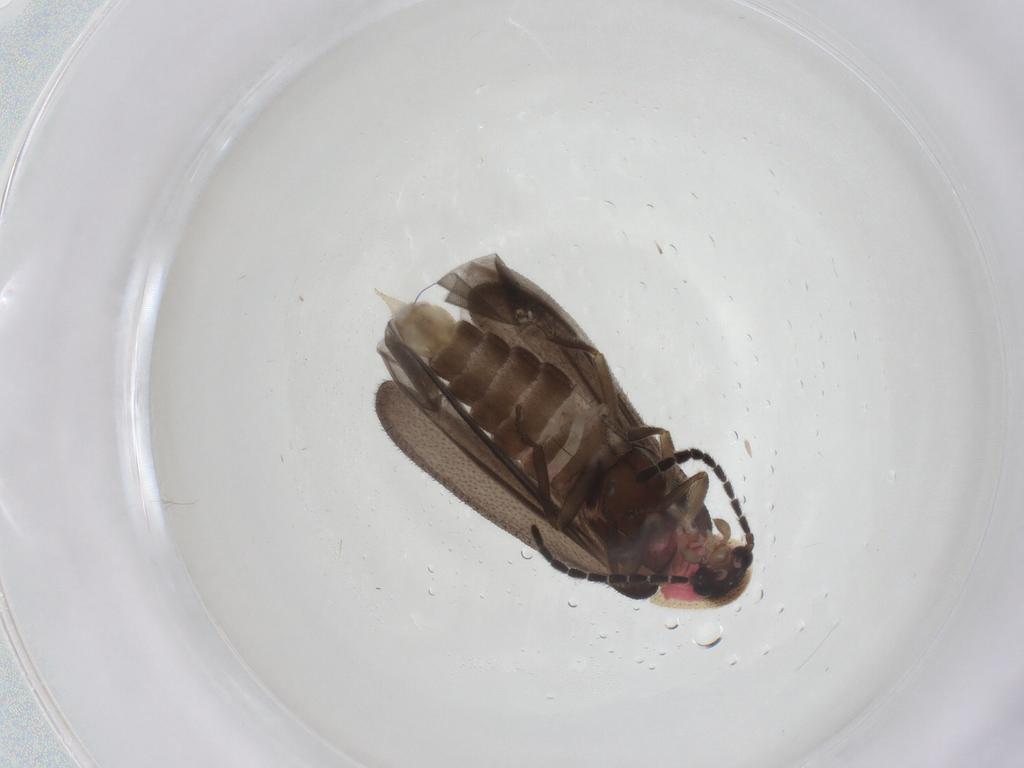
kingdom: Animalia
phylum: Arthropoda
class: Insecta
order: Coleoptera
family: Lampyridae
